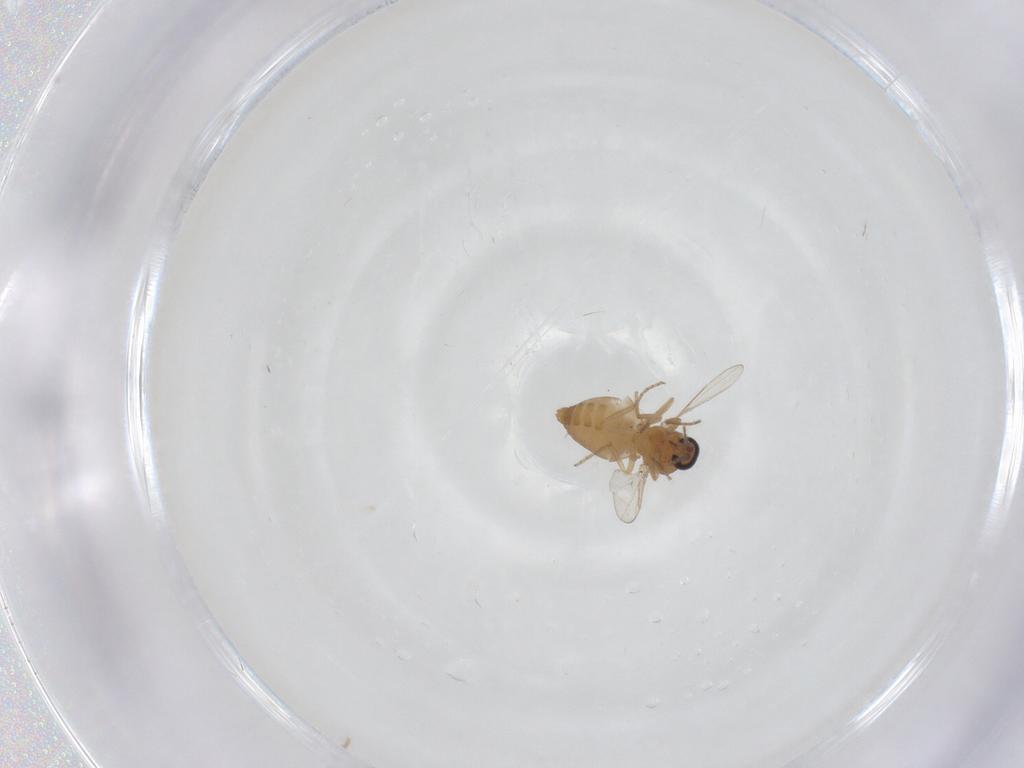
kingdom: Animalia
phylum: Arthropoda
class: Insecta
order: Diptera
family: Ceratopogonidae
